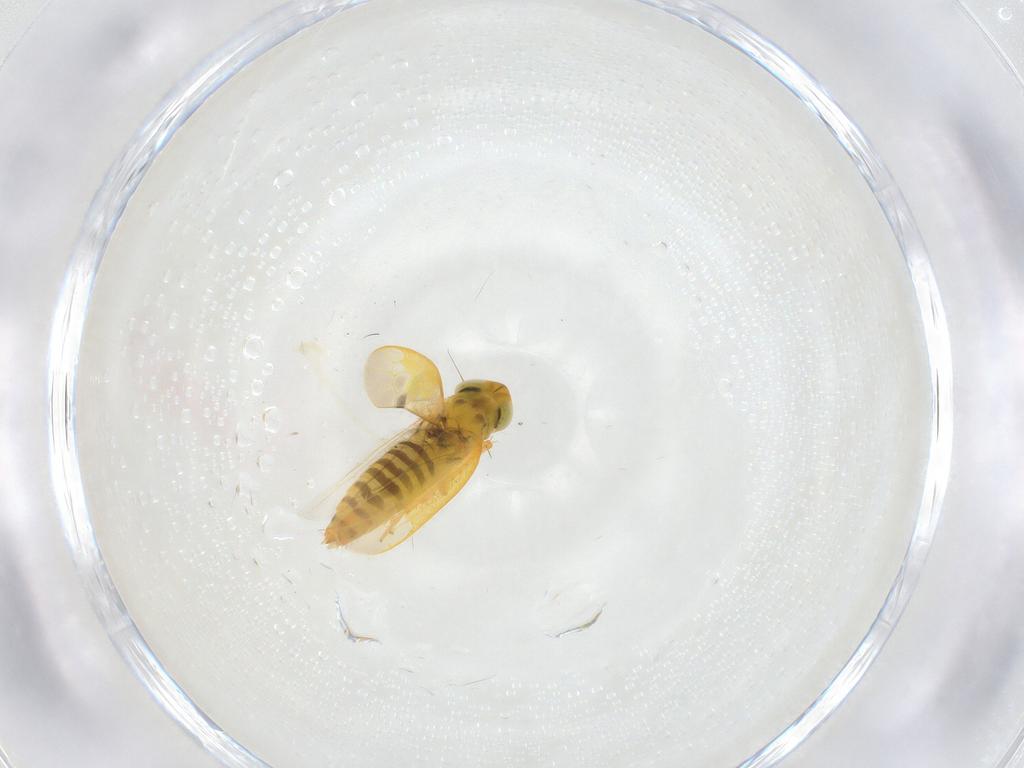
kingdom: Animalia
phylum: Arthropoda
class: Insecta
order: Hemiptera
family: Cicadellidae
